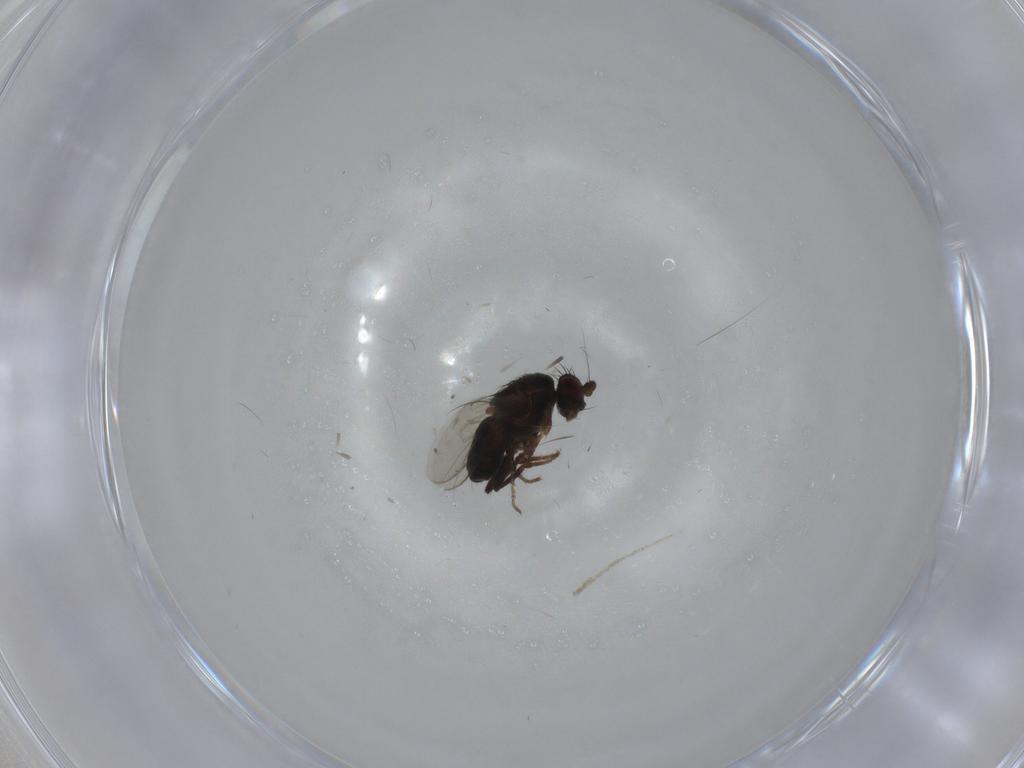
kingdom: Animalia
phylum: Arthropoda
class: Insecta
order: Diptera
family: Sphaeroceridae
